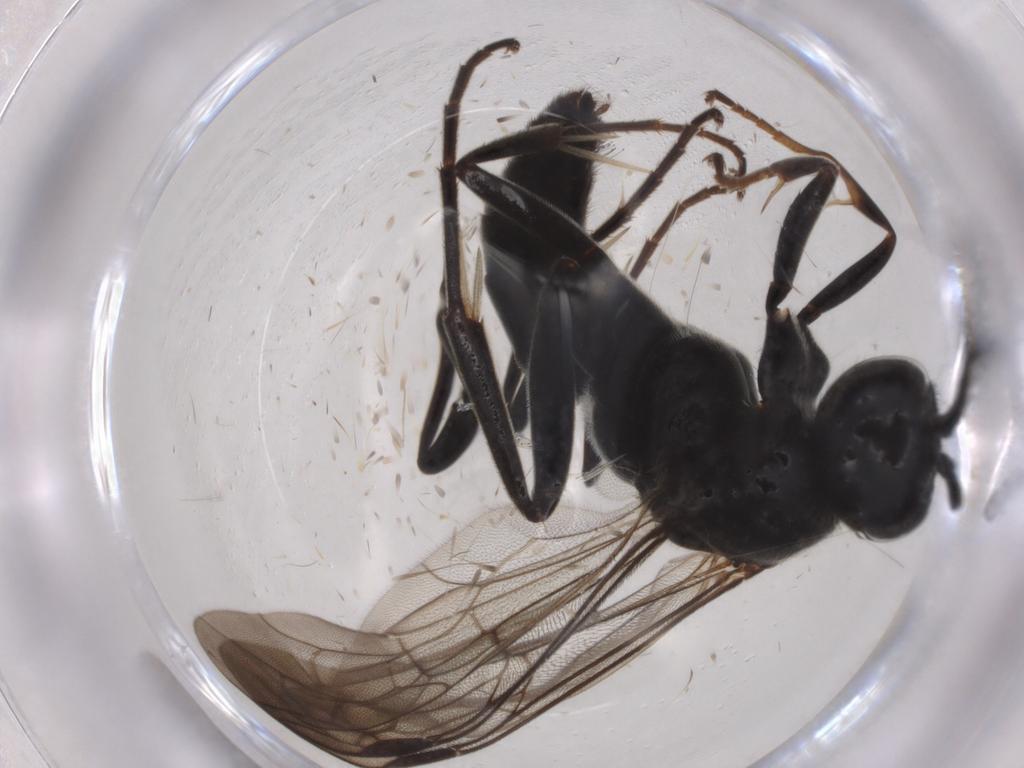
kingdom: Animalia
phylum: Arthropoda
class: Insecta
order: Hymenoptera
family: Pompilidae
